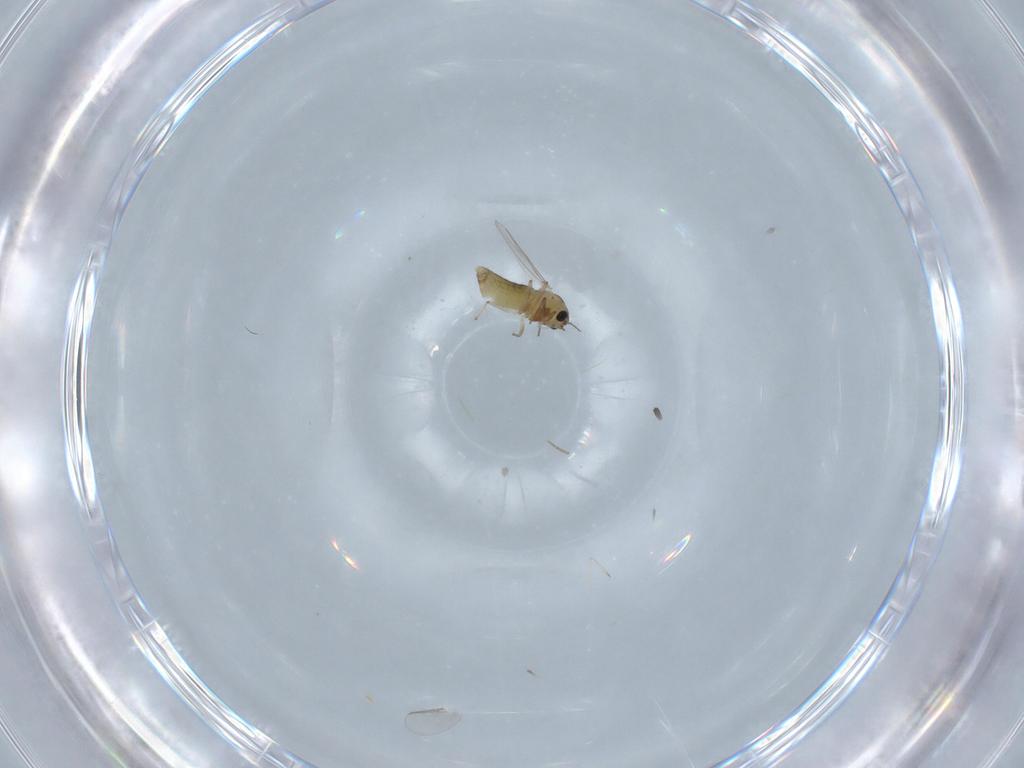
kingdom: Animalia
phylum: Arthropoda
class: Insecta
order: Diptera
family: Chironomidae
